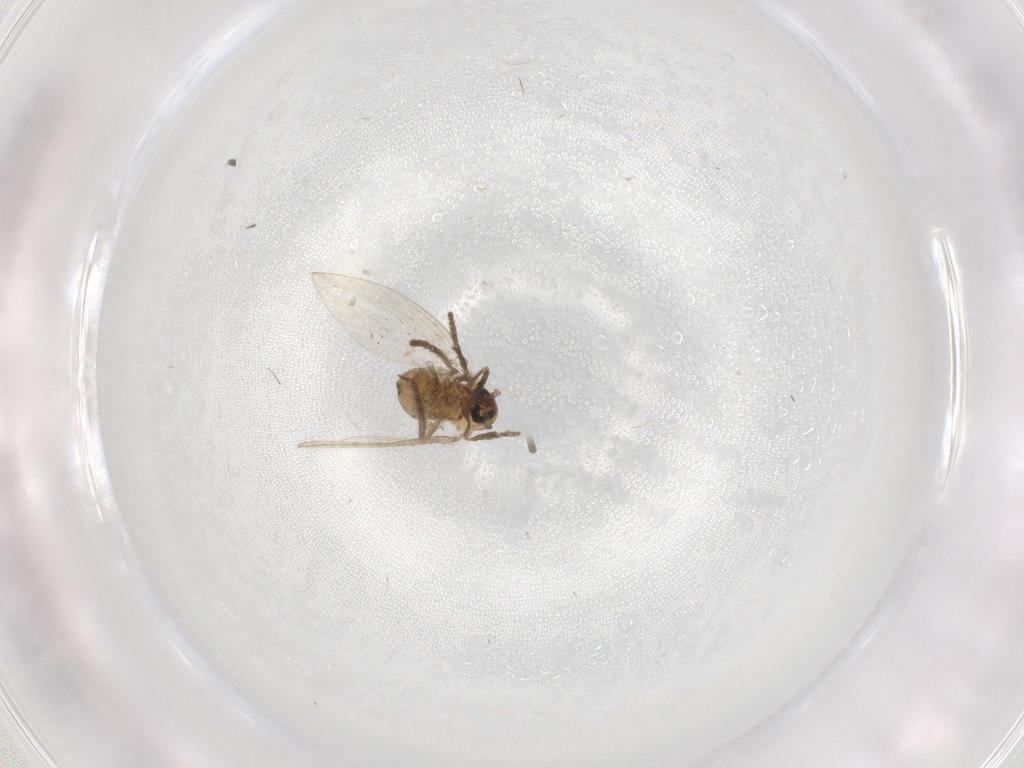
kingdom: Animalia
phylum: Arthropoda
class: Insecta
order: Diptera
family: Psychodidae
